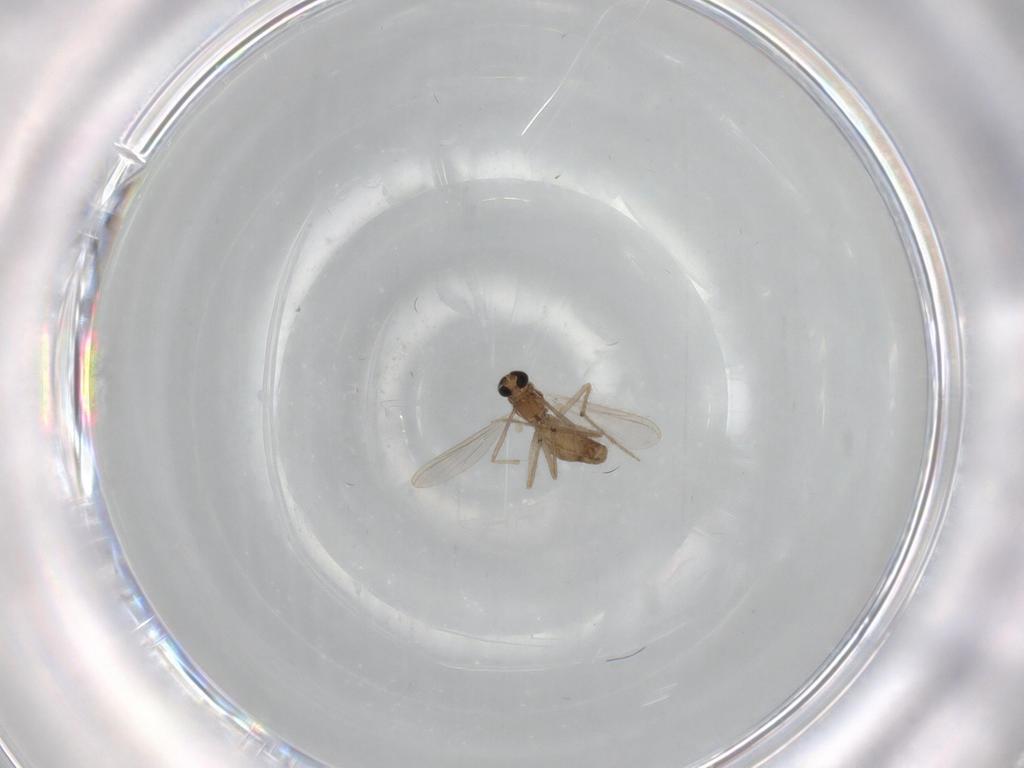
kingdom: Animalia
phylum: Arthropoda
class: Insecta
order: Diptera
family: Chironomidae
